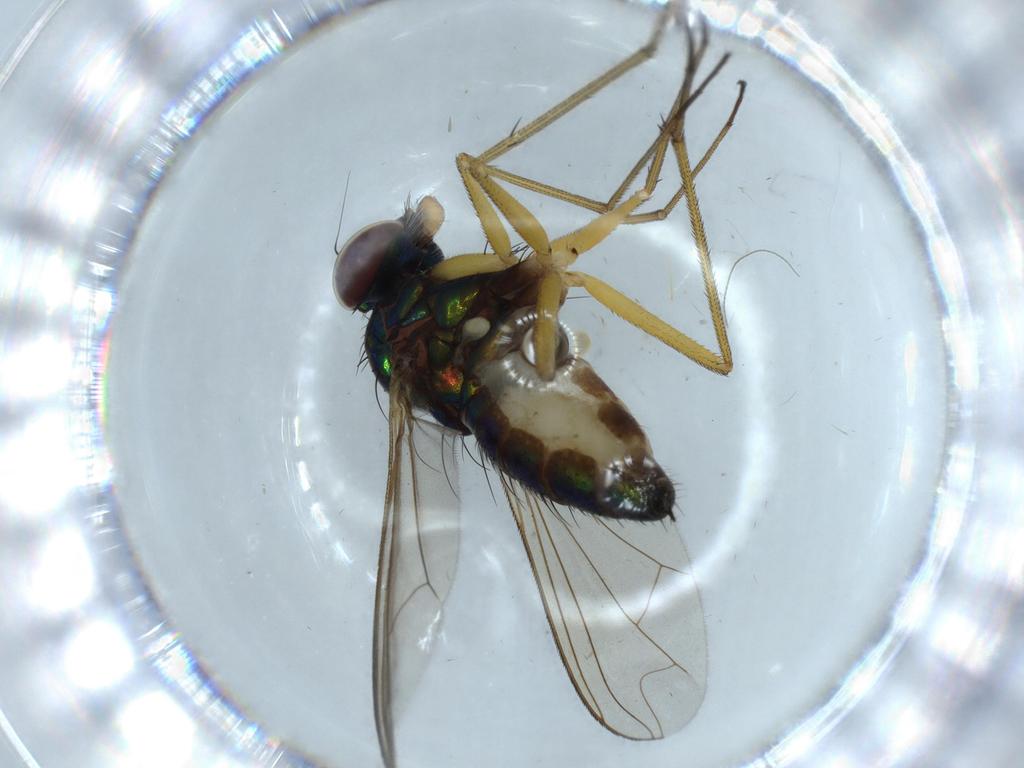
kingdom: Animalia
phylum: Arthropoda
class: Insecta
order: Diptera
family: Dolichopodidae
